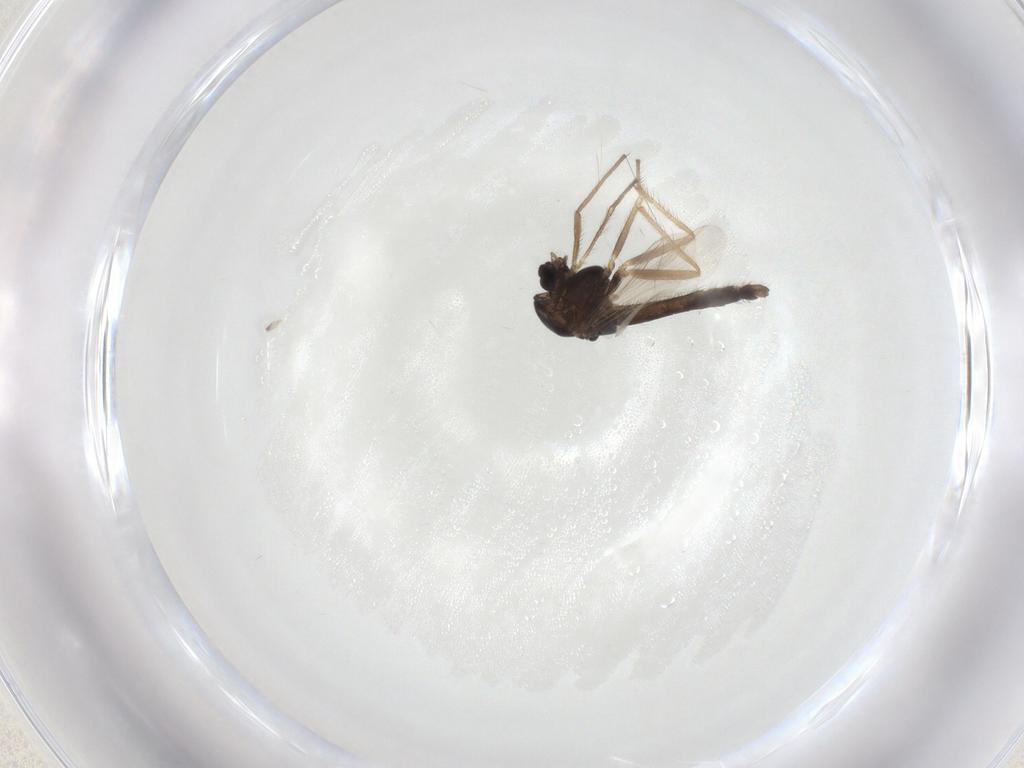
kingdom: Animalia
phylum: Arthropoda
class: Insecta
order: Diptera
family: Chironomidae
